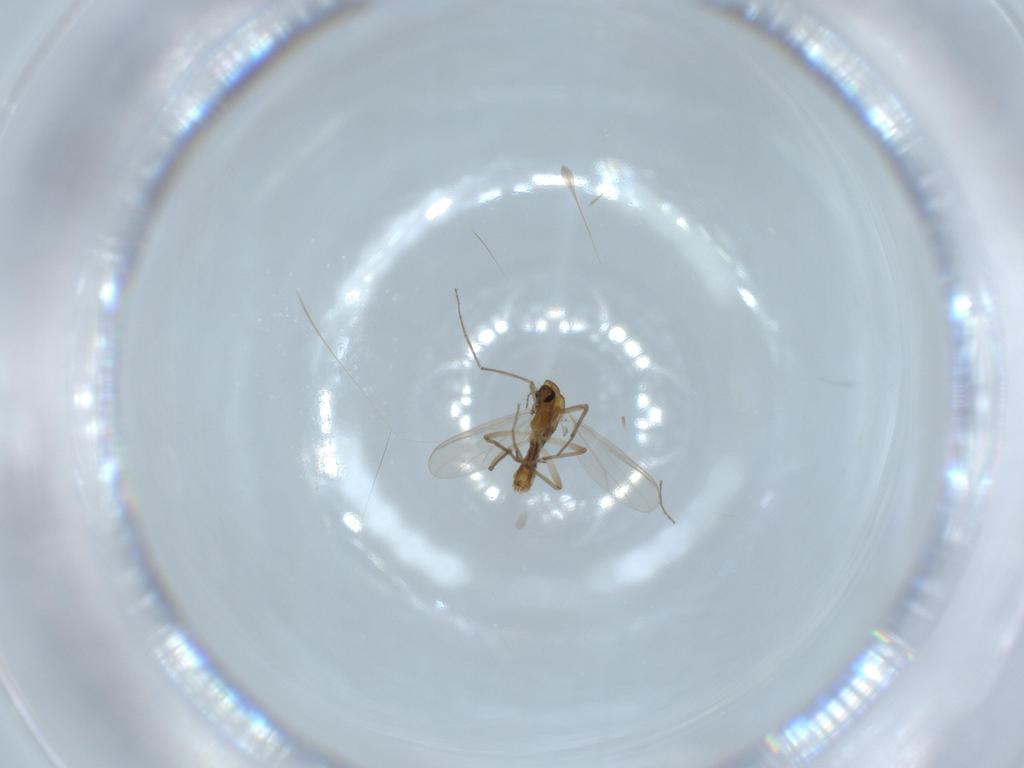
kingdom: Animalia
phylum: Arthropoda
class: Insecta
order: Diptera
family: Chironomidae
